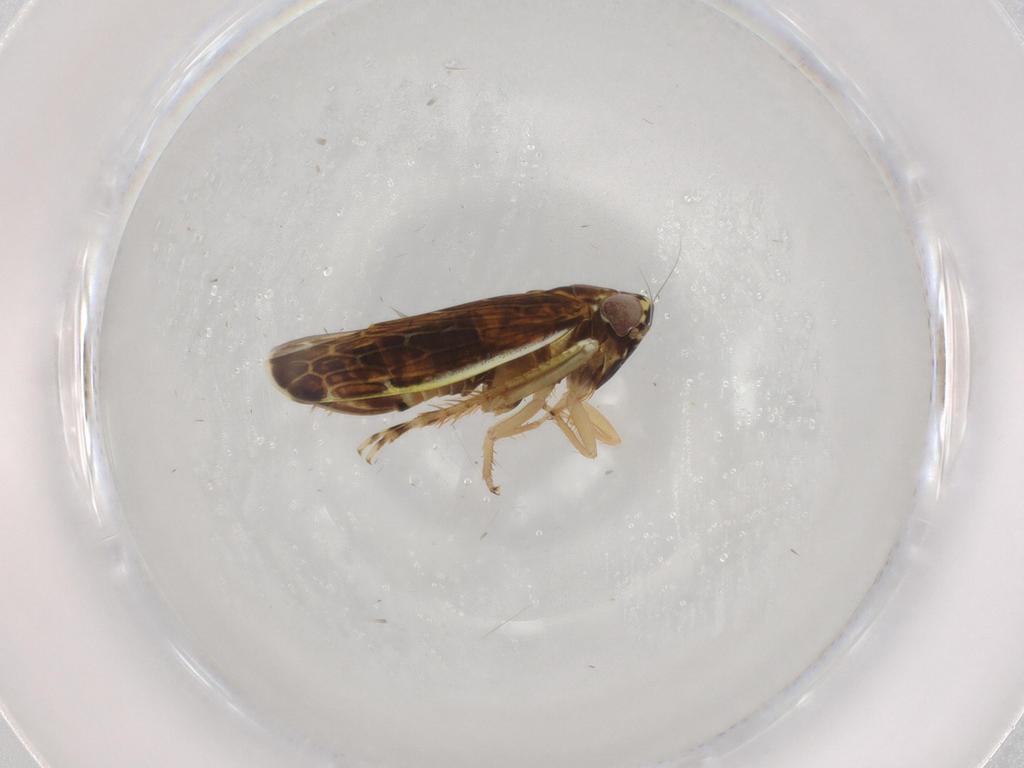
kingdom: Animalia
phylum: Arthropoda
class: Insecta
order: Hemiptera
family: Cicadellidae
